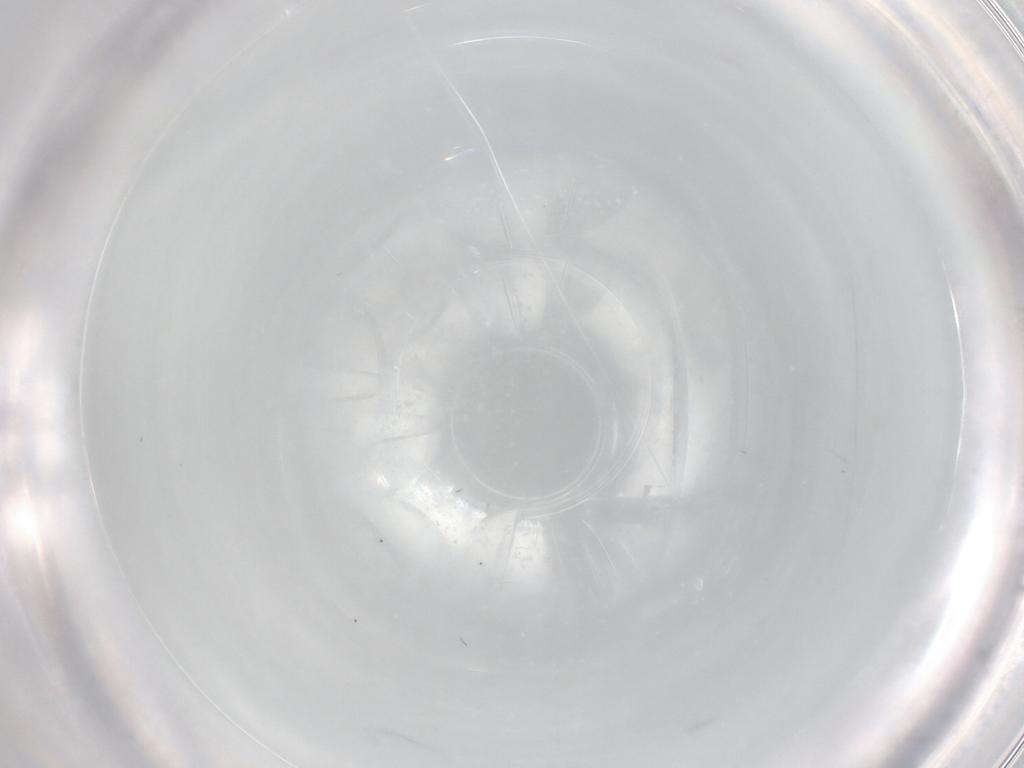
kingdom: Animalia
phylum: Arthropoda
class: Insecta
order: Diptera
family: Cecidomyiidae
